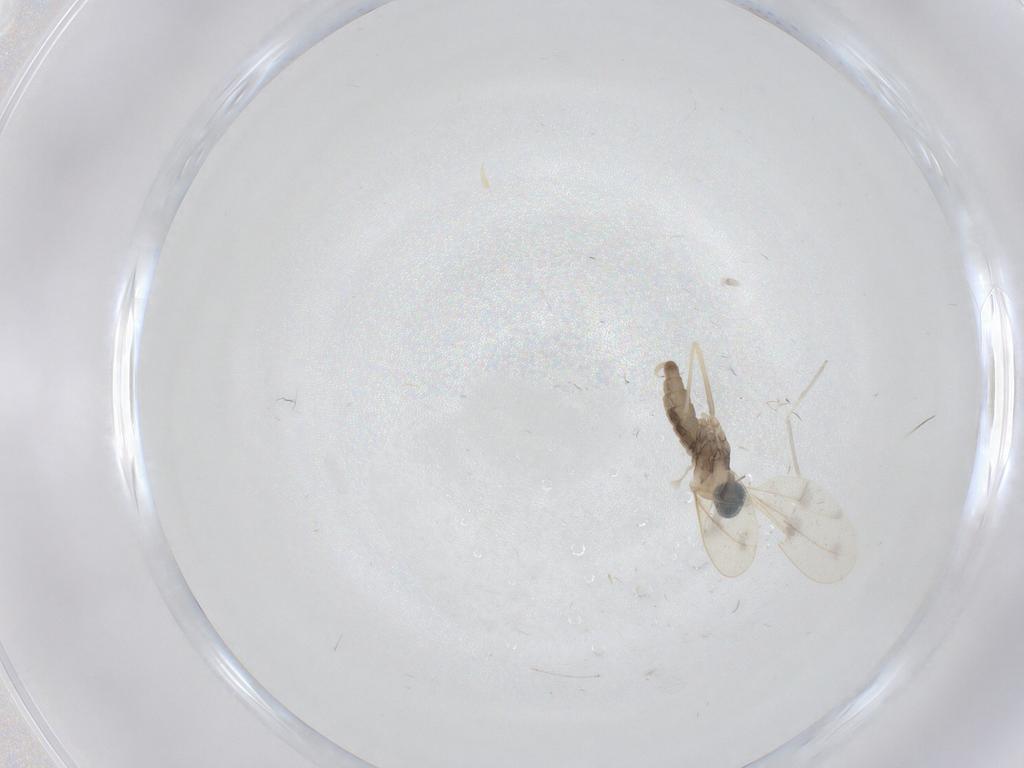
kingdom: Animalia
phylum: Arthropoda
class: Insecta
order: Diptera
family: Cecidomyiidae
